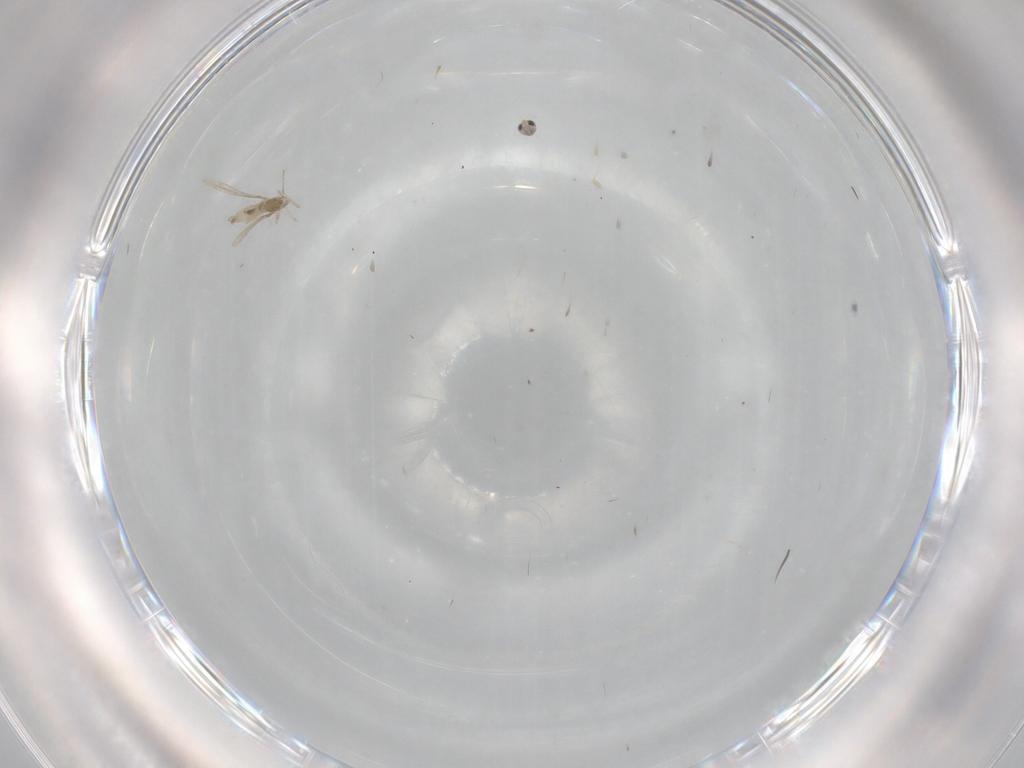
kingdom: Animalia
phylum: Arthropoda
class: Insecta
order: Diptera
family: Cecidomyiidae
